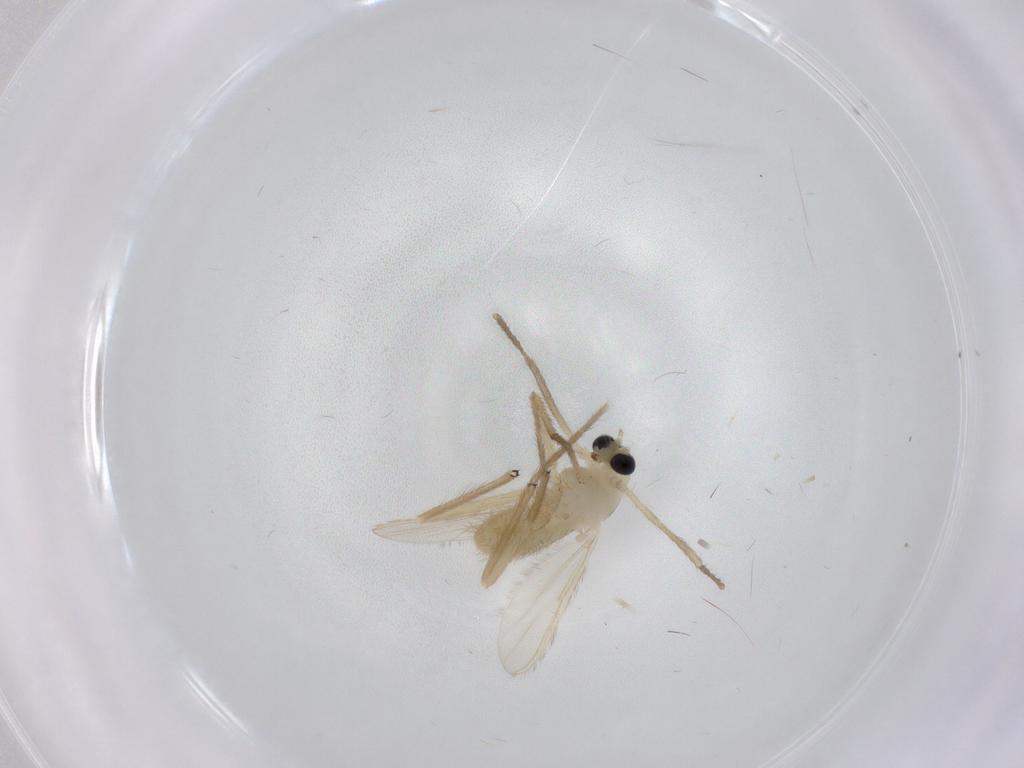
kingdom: Animalia
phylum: Arthropoda
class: Insecta
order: Diptera
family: Chironomidae
